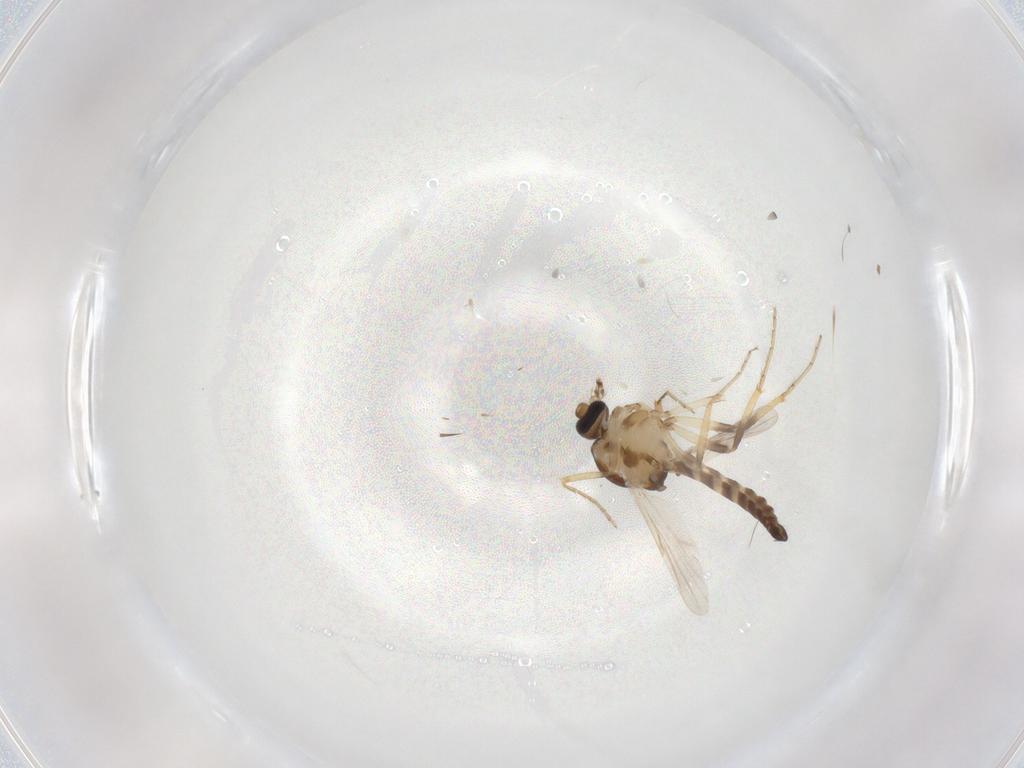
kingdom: Animalia
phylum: Arthropoda
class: Insecta
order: Diptera
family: Ceratopogonidae
